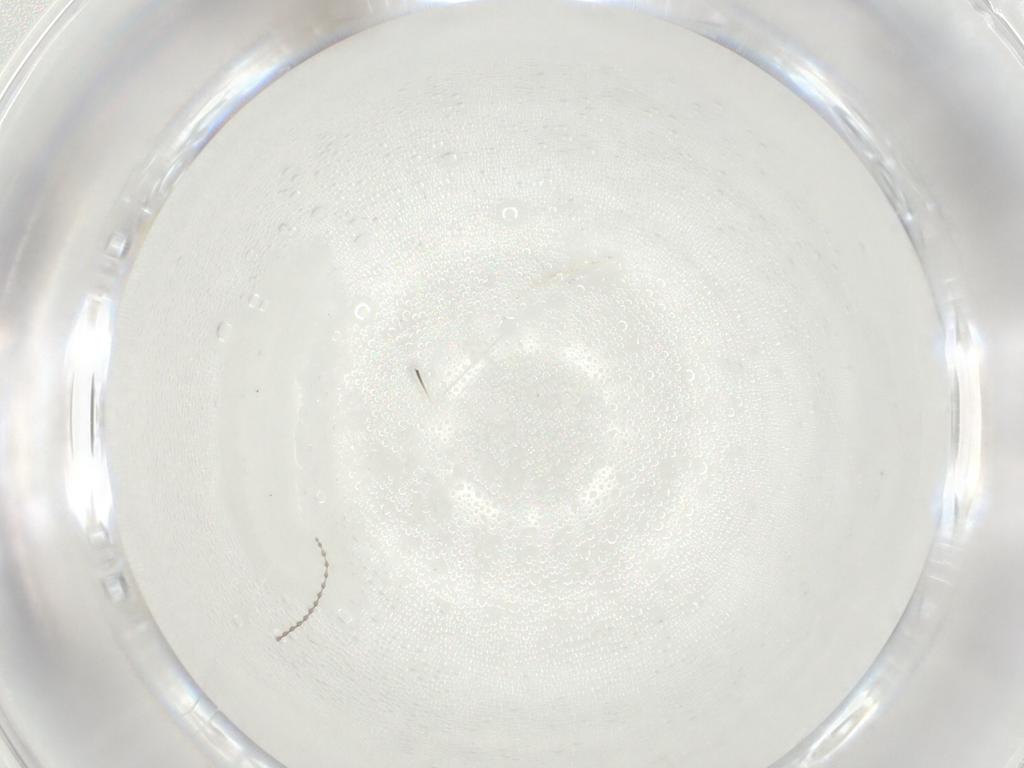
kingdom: Animalia
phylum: Arthropoda
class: Insecta
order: Diptera
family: Cecidomyiidae
